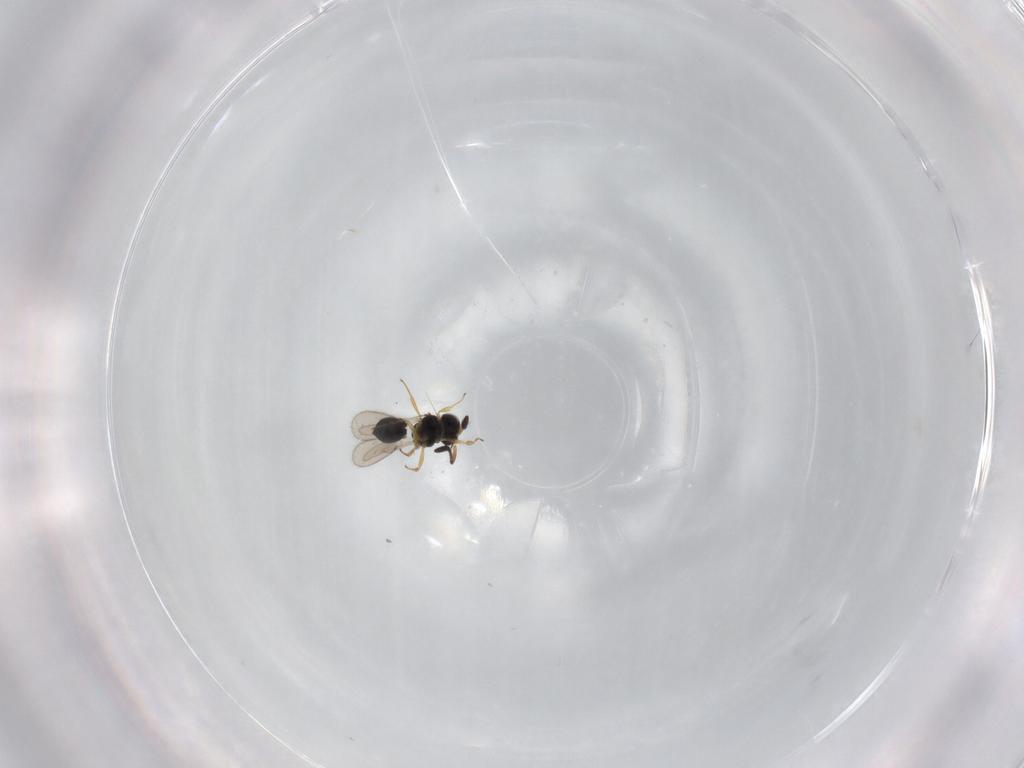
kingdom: Animalia
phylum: Arthropoda
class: Insecta
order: Hymenoptera
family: Scelionidae
